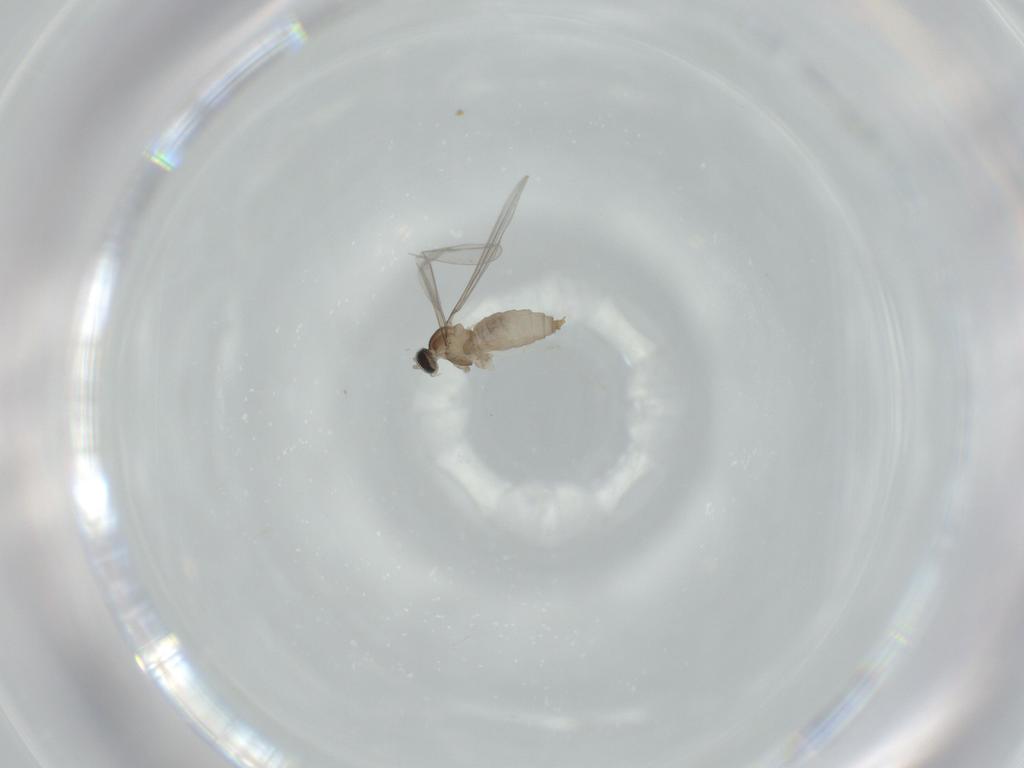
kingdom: Animalia
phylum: Arthropoda
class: Insecta
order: Diptera
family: Cecidomyiidae
